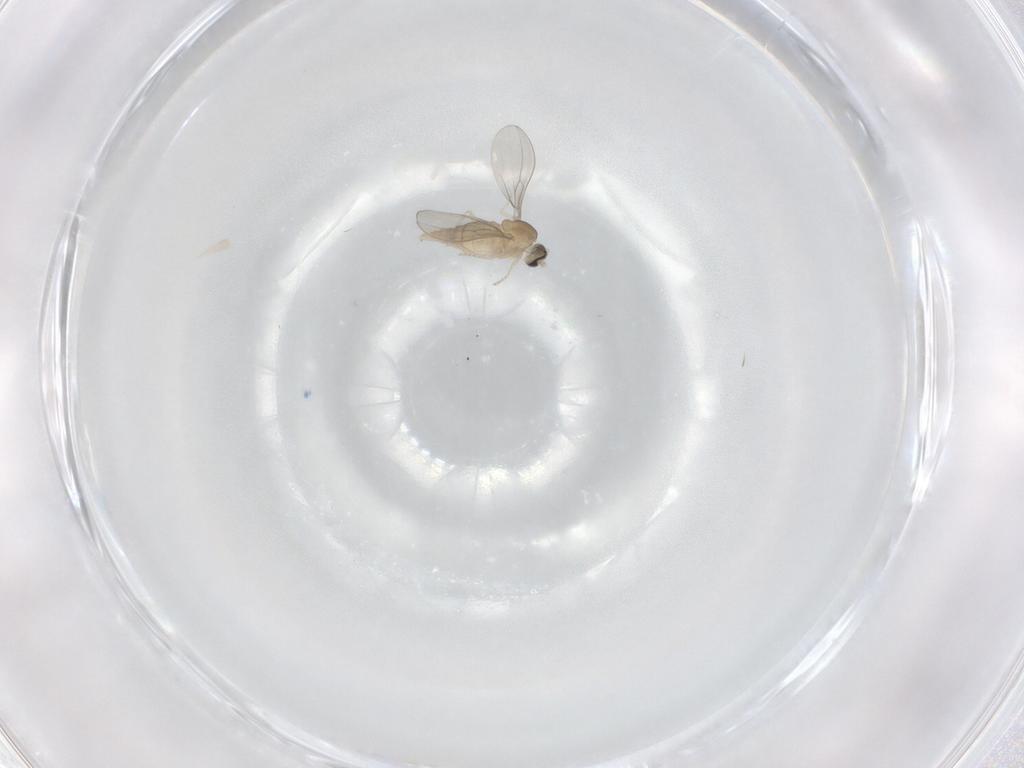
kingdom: Animalia
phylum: Arthropoda
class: Insecta
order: Diptera
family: Cecidomyiidae
